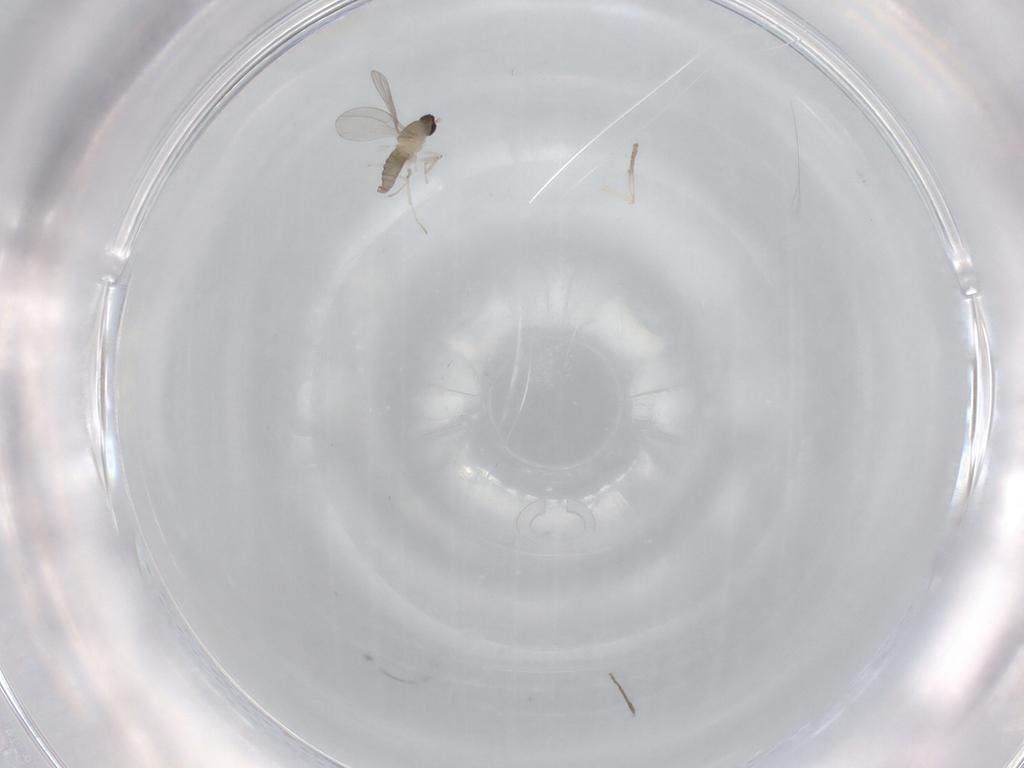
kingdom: Animalia
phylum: Arthropoda
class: Insecta
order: Diptera
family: Cecidomyiidae
